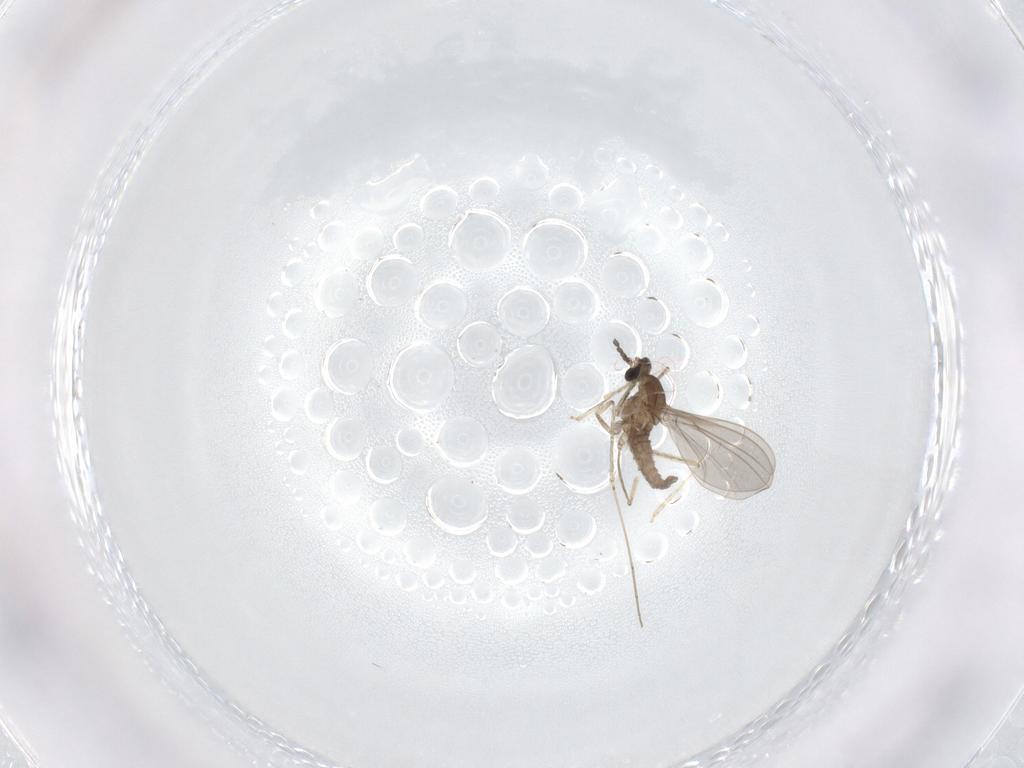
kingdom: Animalia
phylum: Arthropoda
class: Insecta
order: Diptera
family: Cecidomyiidae
